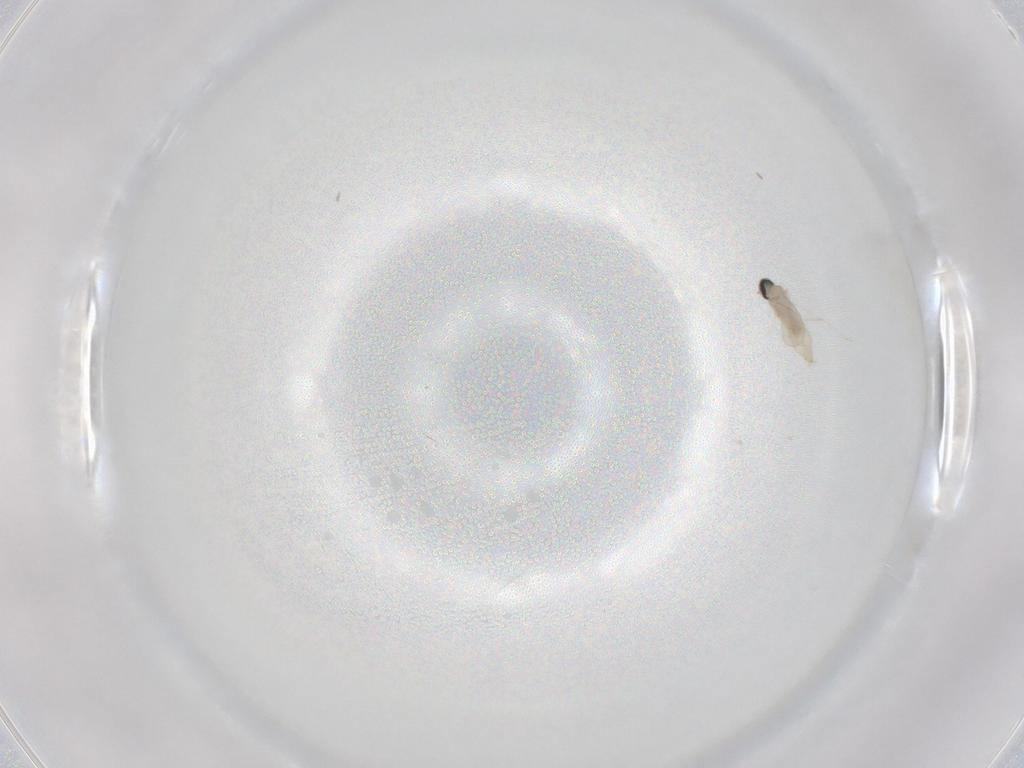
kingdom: Animalia
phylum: Arthropoda
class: Insecta
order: Diptera
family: Cecidomyiidae
